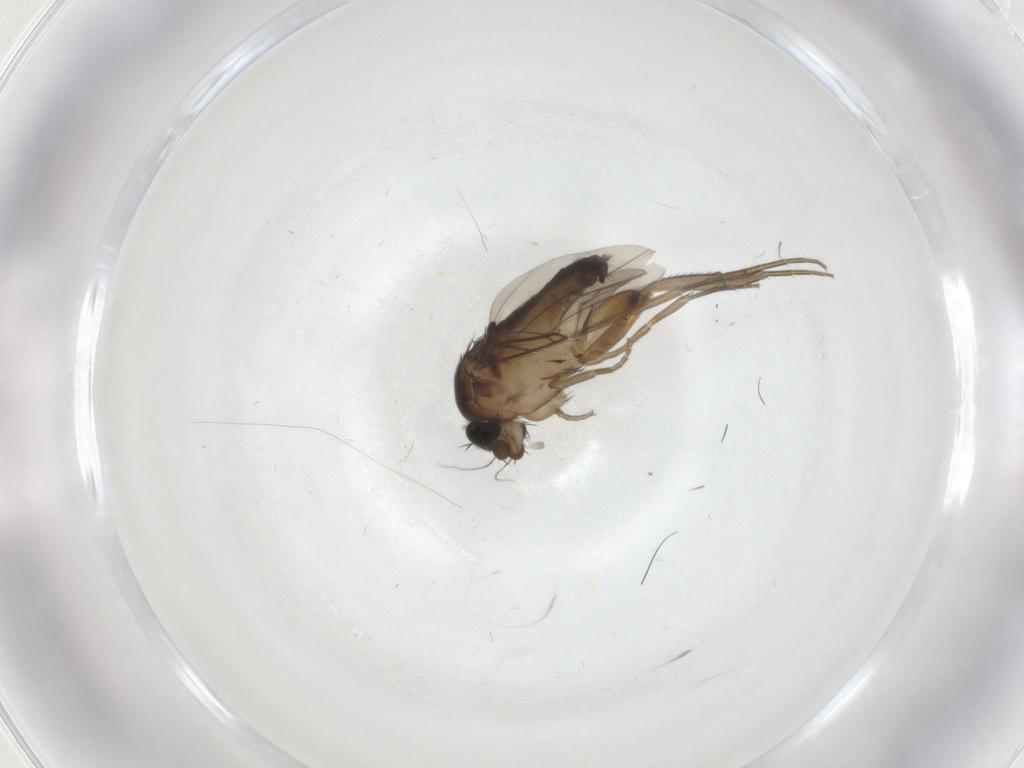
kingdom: Animalia
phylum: Arthropoda
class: Insecta
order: Diptera
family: Phoridae
